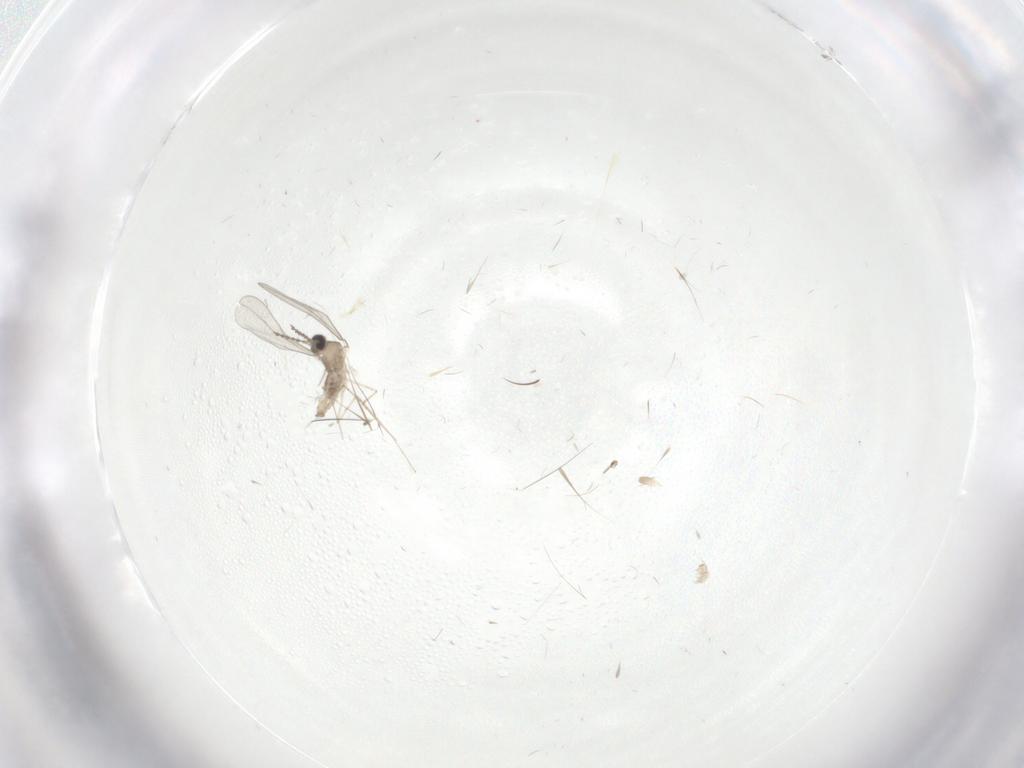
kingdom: Animalia
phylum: Arthropoda
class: Insecta
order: Diptera
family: Cecidomyiidae
